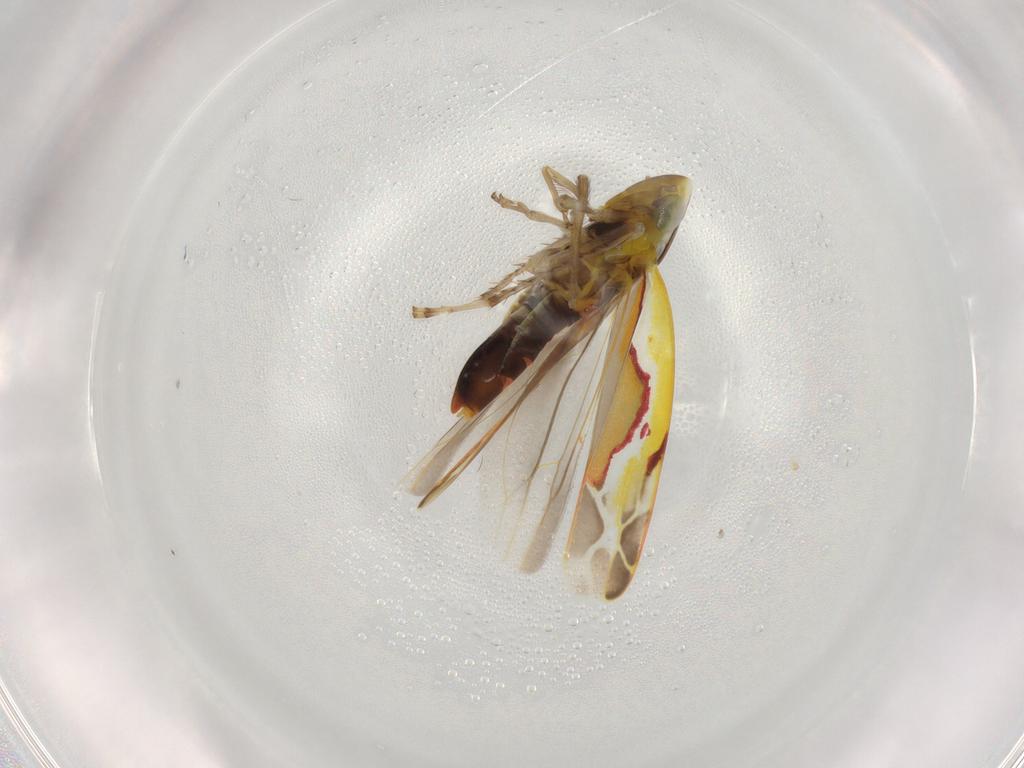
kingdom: Animalia
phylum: Arthropoda
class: Insecta
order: Hemiptera
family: Cicadellidae
